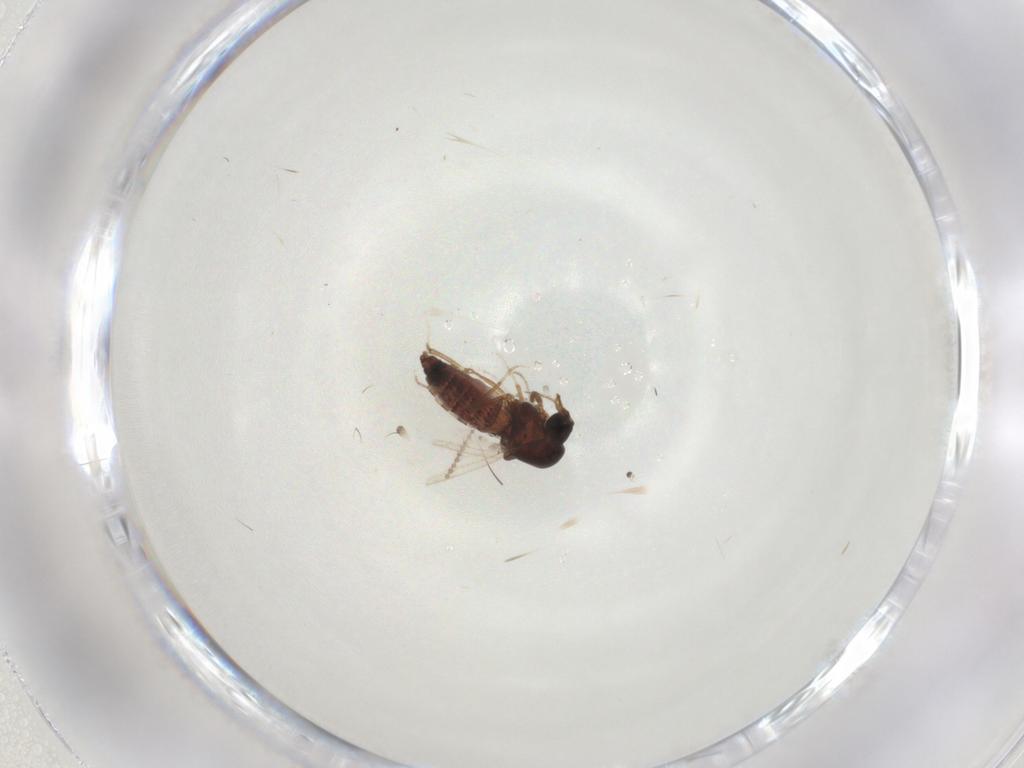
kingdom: Animalia
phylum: Arthropoda
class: Insecta
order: Diptera
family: Ceratopogonidae
